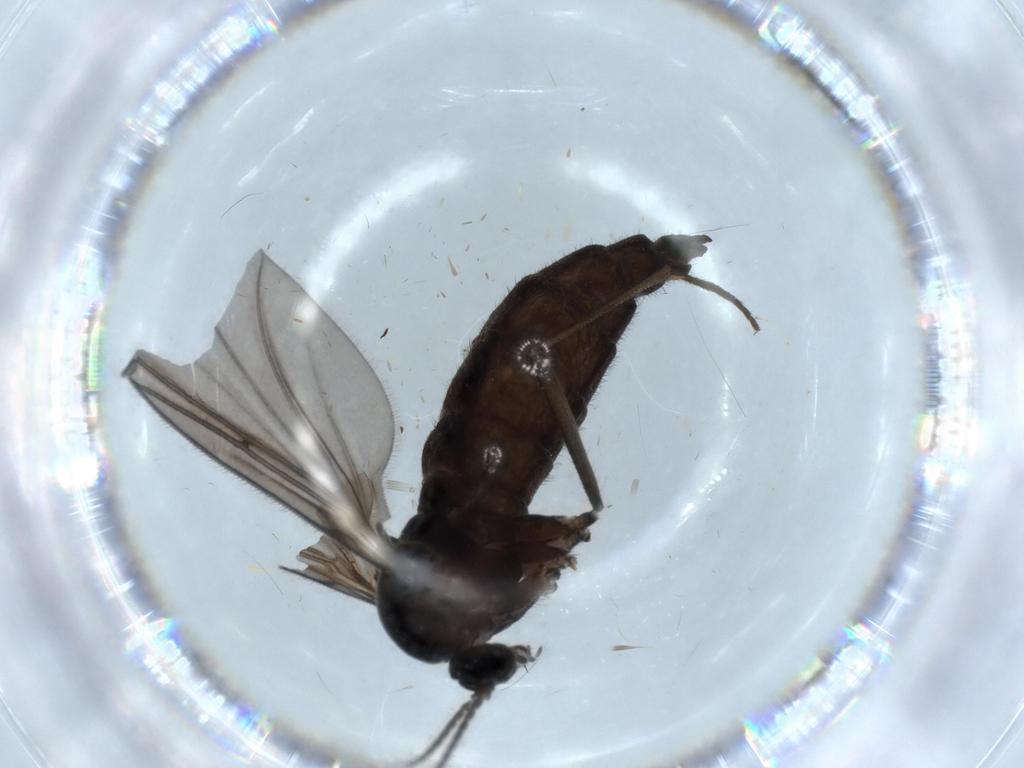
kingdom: Animalia
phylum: Arthropoda
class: Insecta
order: Diptera
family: Sciaridae
